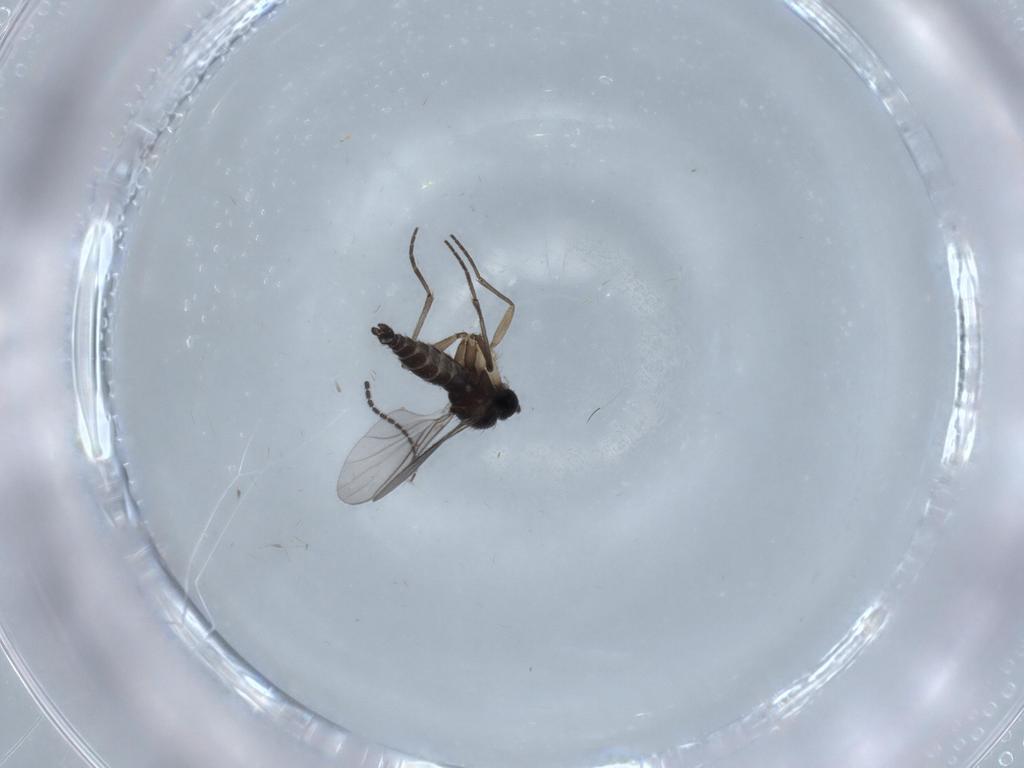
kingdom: Animalia
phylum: Arthropoda
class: Insecta
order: Diptera
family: Sciaridae
